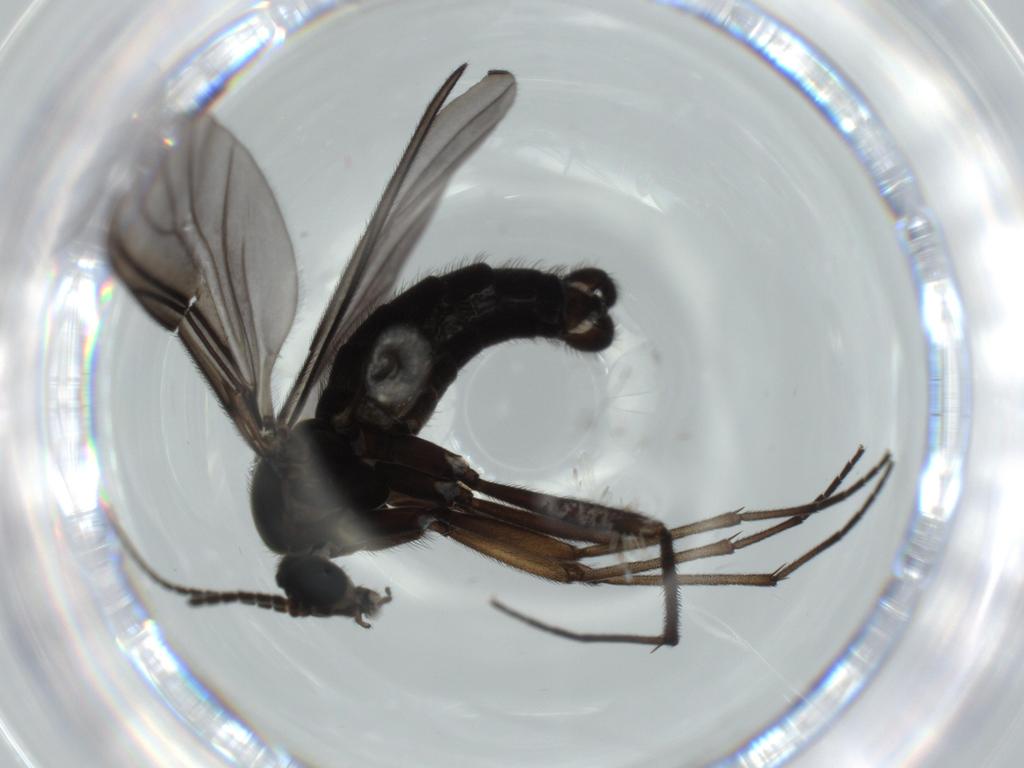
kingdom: Animalia
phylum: Arthropoda
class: Insecta
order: Diptera
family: Sciaridae
